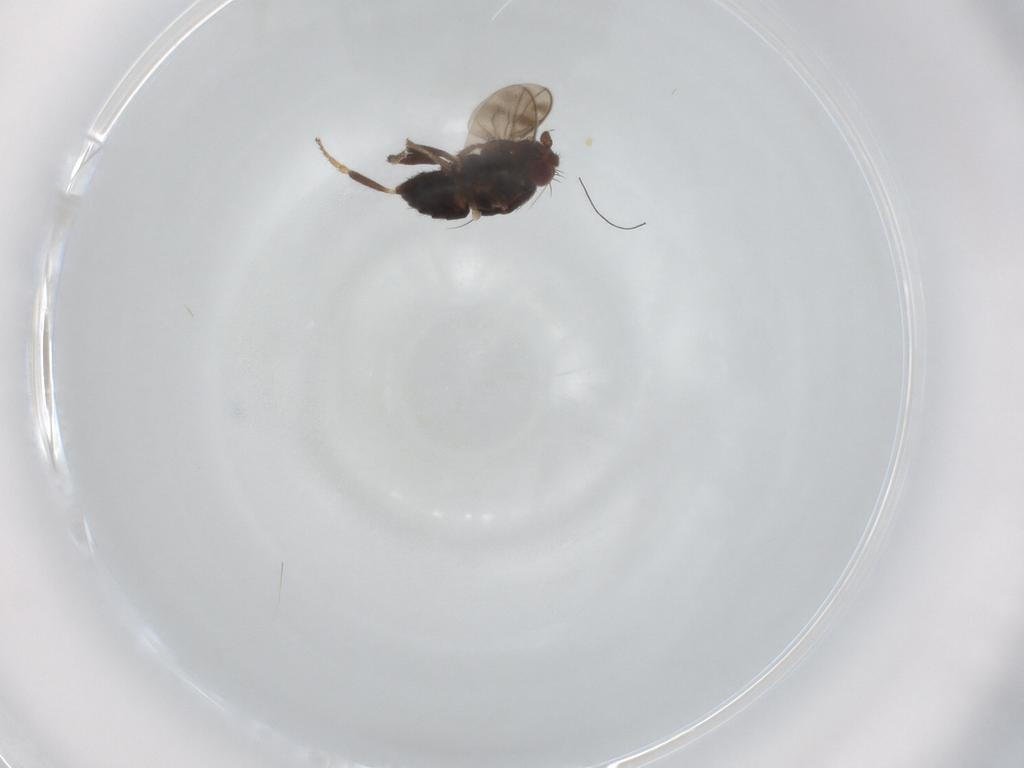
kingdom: Animalia
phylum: Arthropoda
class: Insecta
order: Diptera
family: Sphaeroceridae
